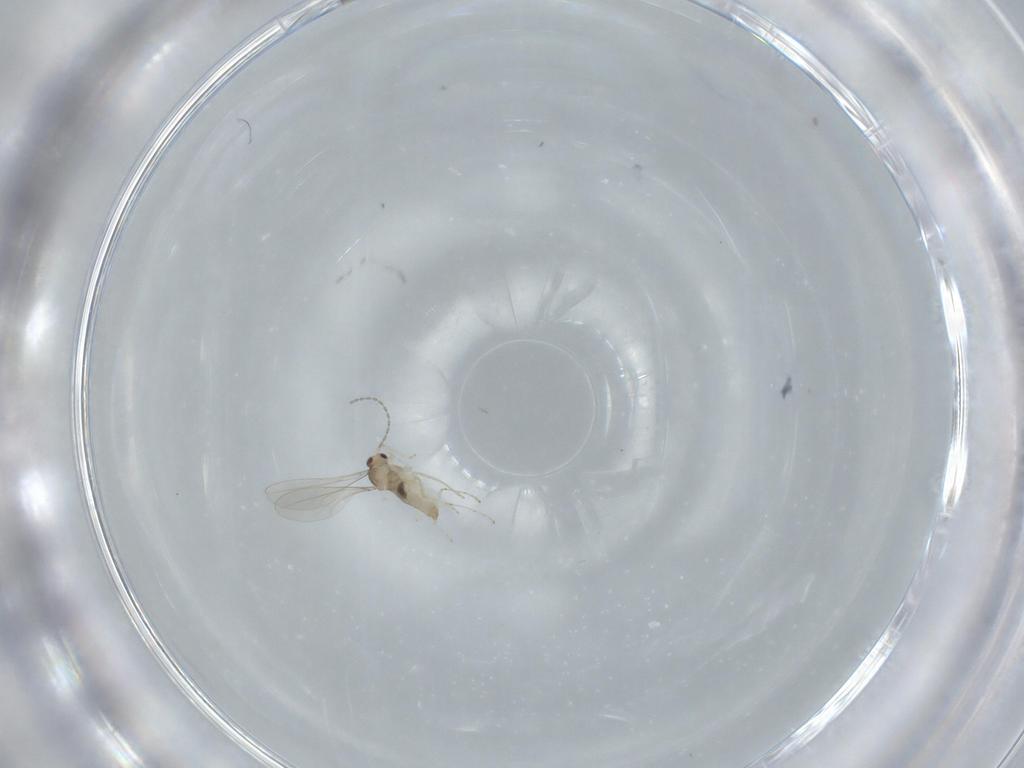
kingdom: Animalia
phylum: Arthropoda
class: Insecta
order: Diptera
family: Cecidomyiidae
